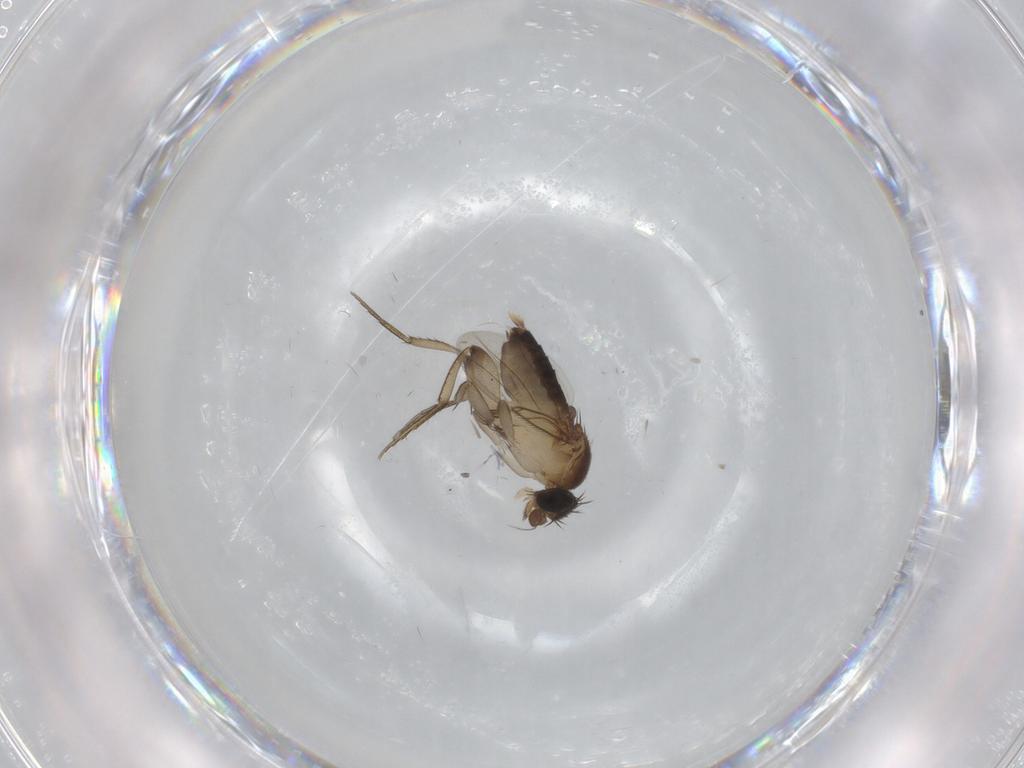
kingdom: Animalia
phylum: Arthropoda
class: Insecta
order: Diptera
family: Phoridae
